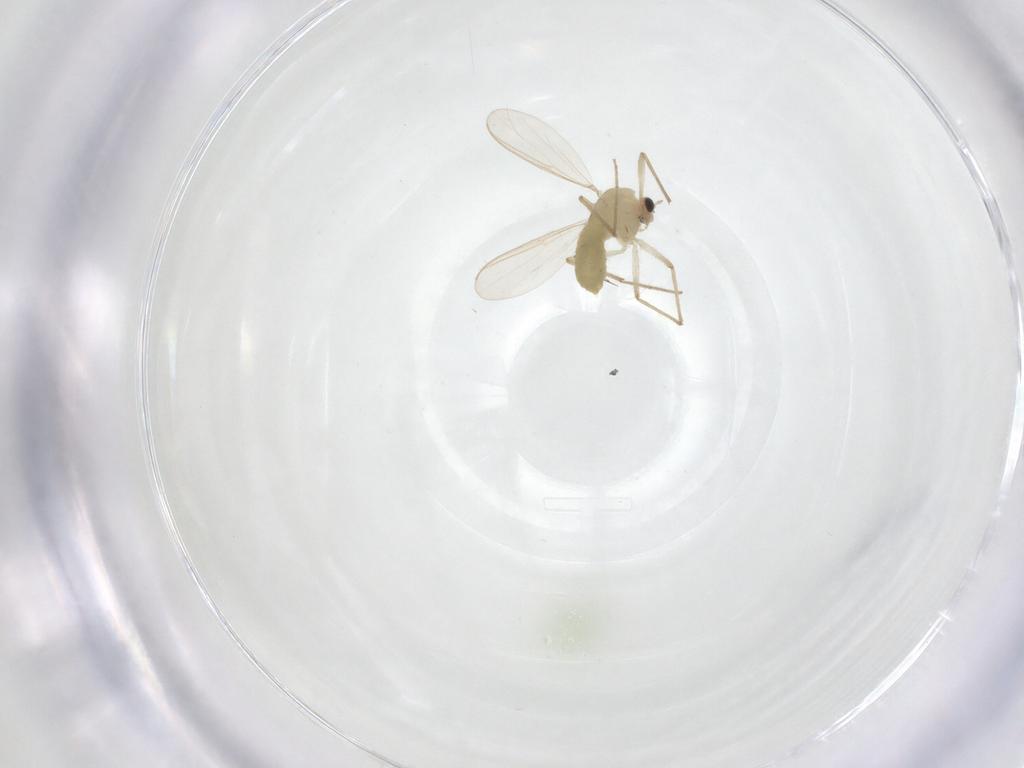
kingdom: Animalia
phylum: Arthropoda
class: Insecta
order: Diptera
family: Chironomidae
